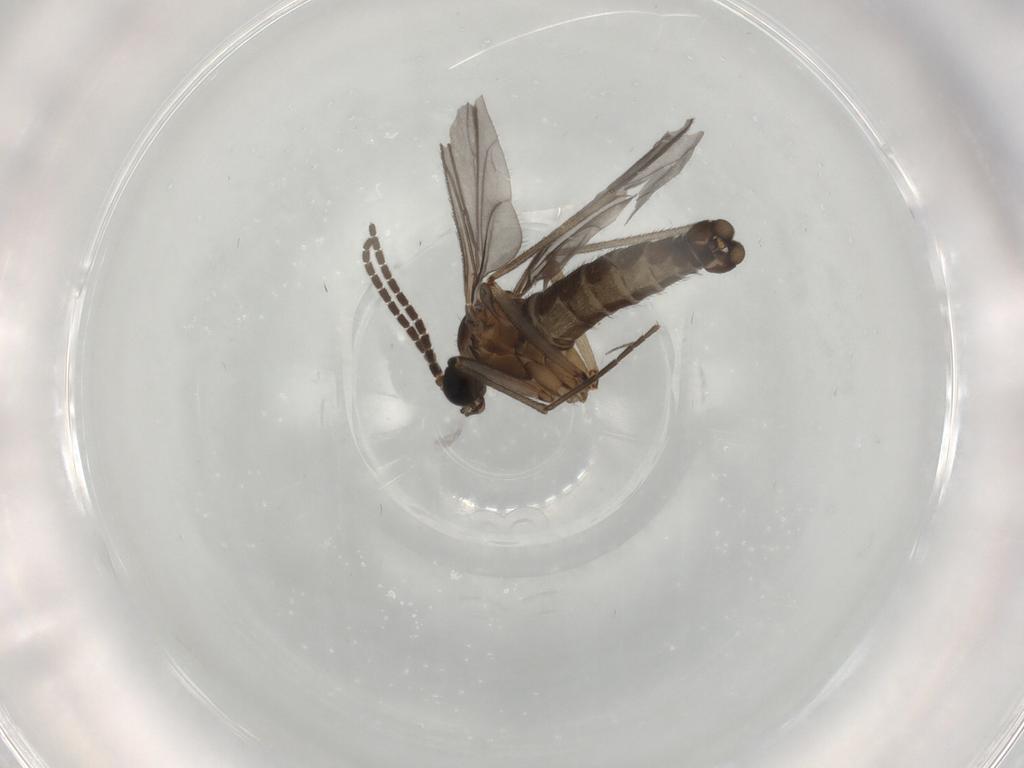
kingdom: Animalia
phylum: Arthropoda
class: Insecta
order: Diptera
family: Sciaridae
